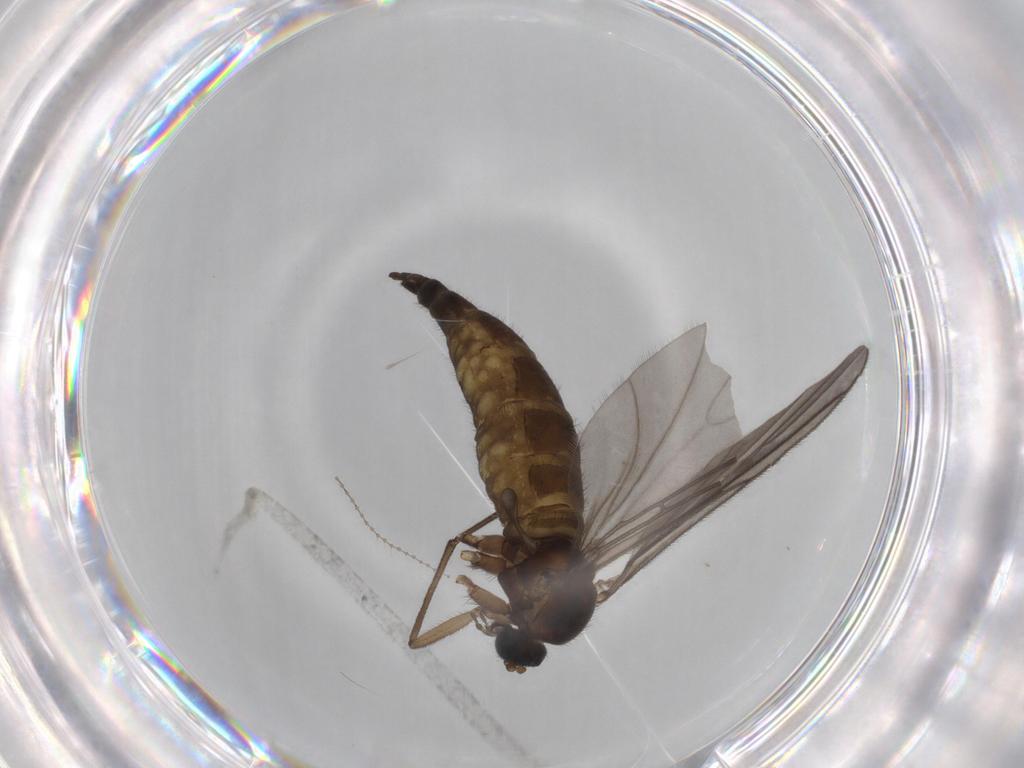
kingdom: Animalia
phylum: Arthropoda
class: Insecta
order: Diptera
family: Sciaridae
